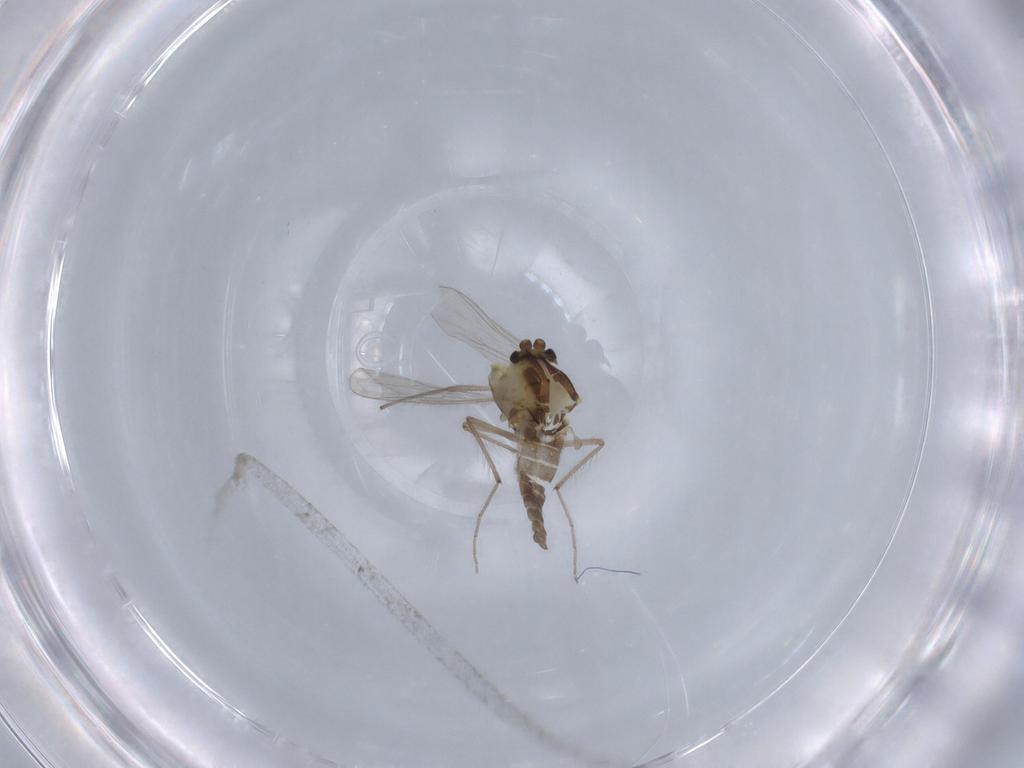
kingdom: Animalia
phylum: Arthropoda
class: Insecta
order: Diptera
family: Chironomidae
